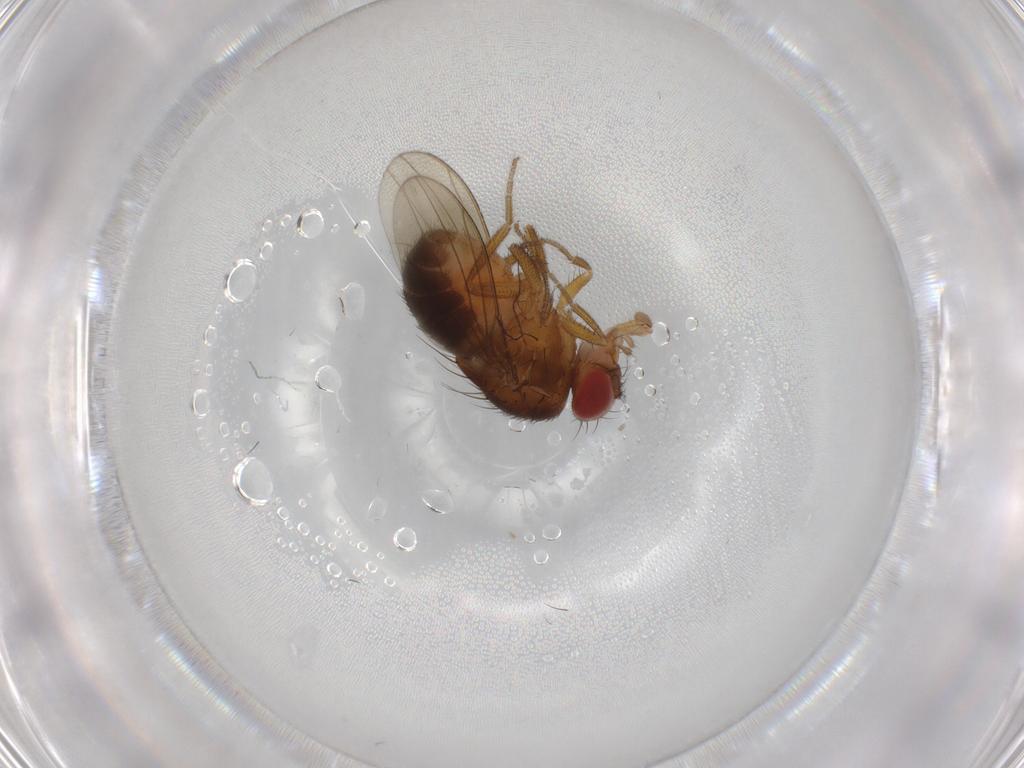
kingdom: Animalia
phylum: Arthropoda
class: Insecta
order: Diptera
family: Drosophilidae
